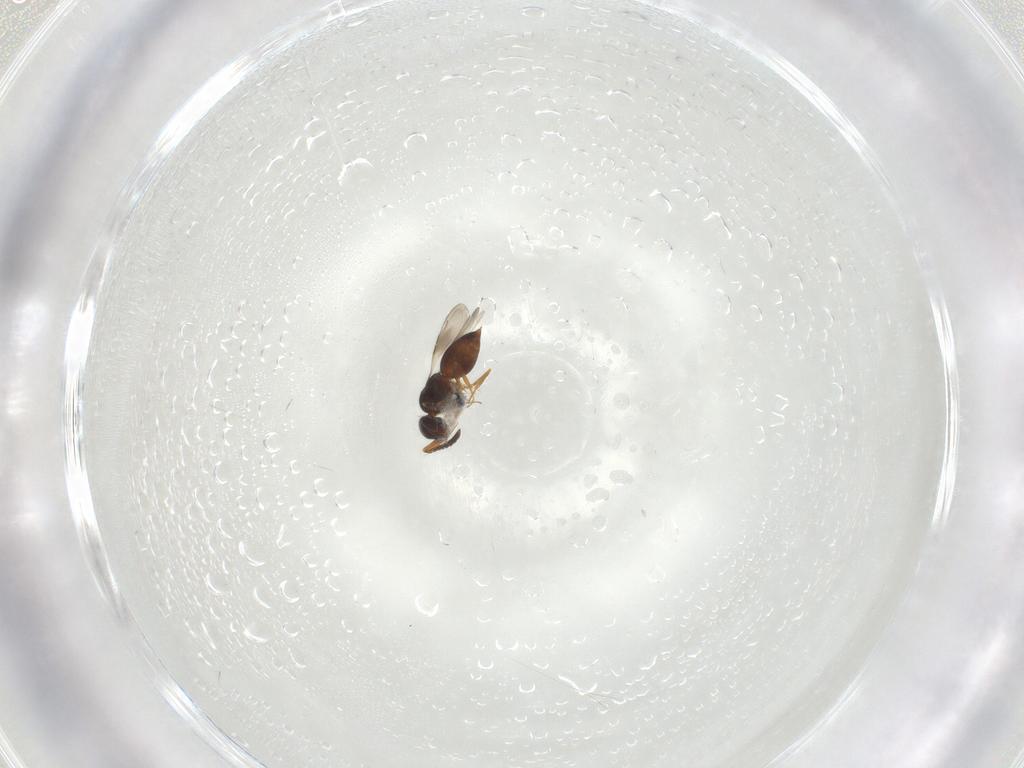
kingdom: Animalia
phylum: Arthropoda
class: Insecta
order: Hymenoptera
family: Ceraphronidae
